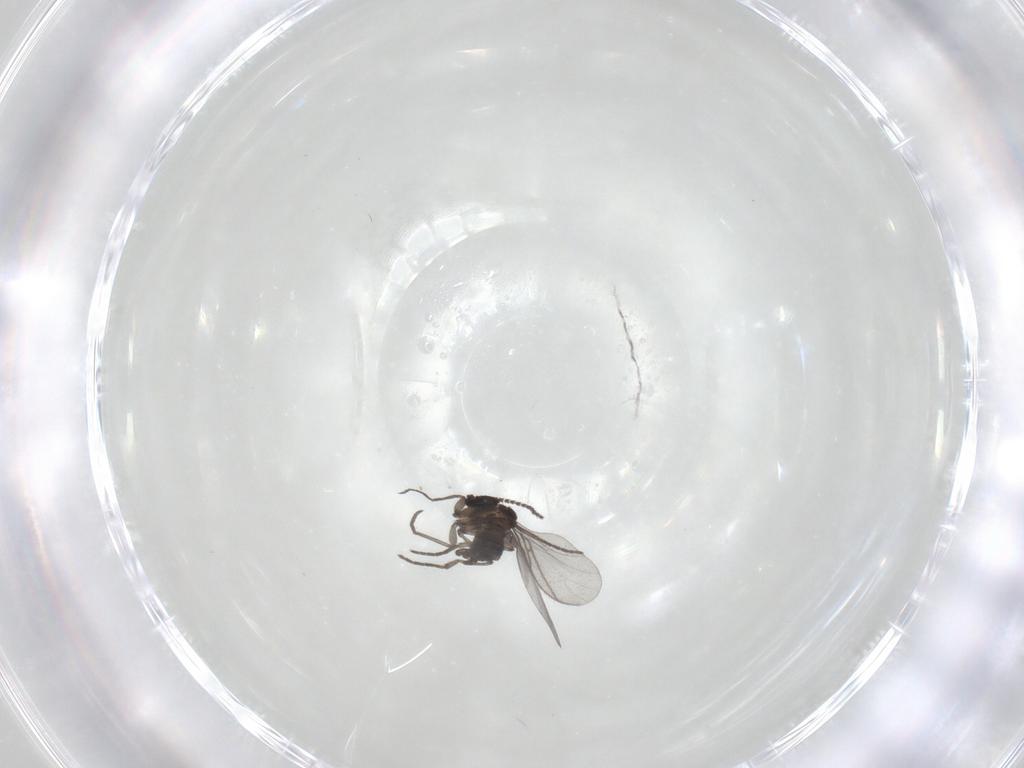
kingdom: Animalia
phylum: Arthropoda
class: Insecta
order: Diptera
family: Sciaridae
